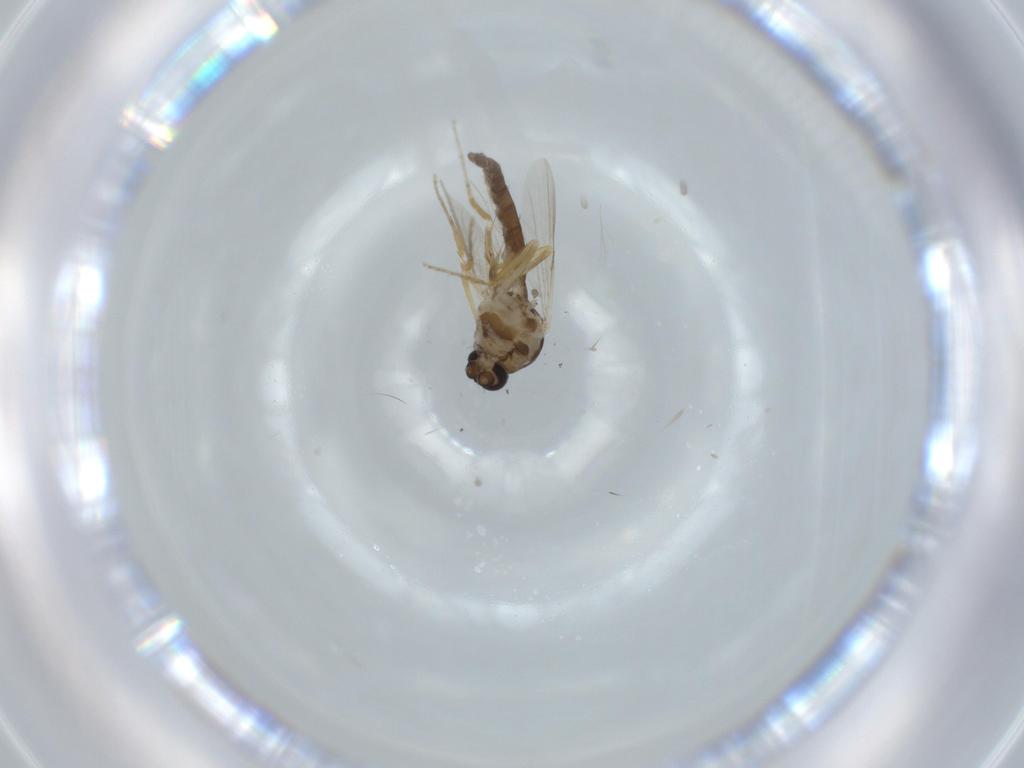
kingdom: Animalia
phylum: Arthropoda
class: Insecta
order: Diptera
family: Ceratopogonidae
